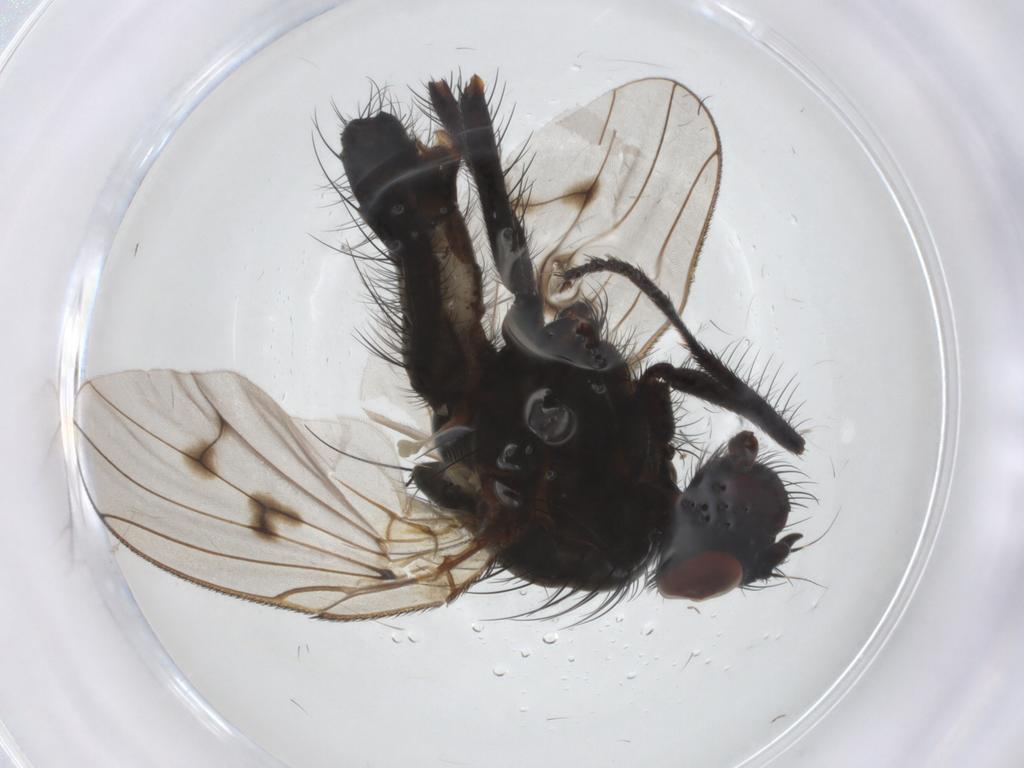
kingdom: Animalia
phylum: Arthropoda
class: Insecta
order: Diptera
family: Anthomyiidae
